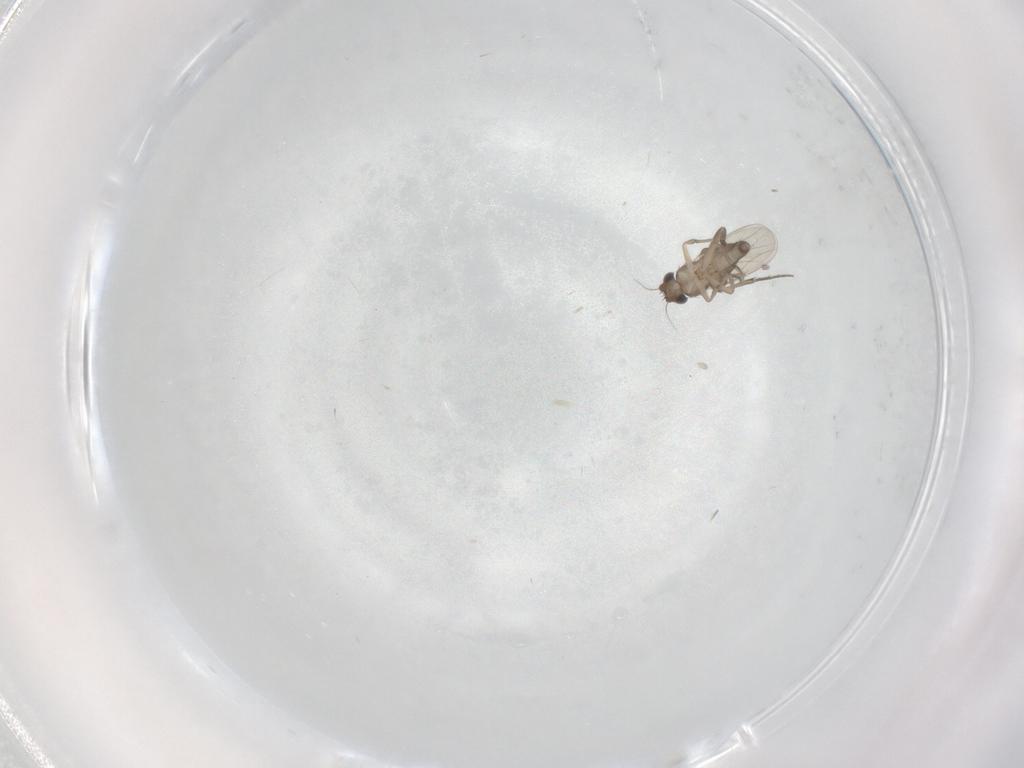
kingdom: Animalia
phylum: Arthropoda
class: Insecta
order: Diptera
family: Phoridae
